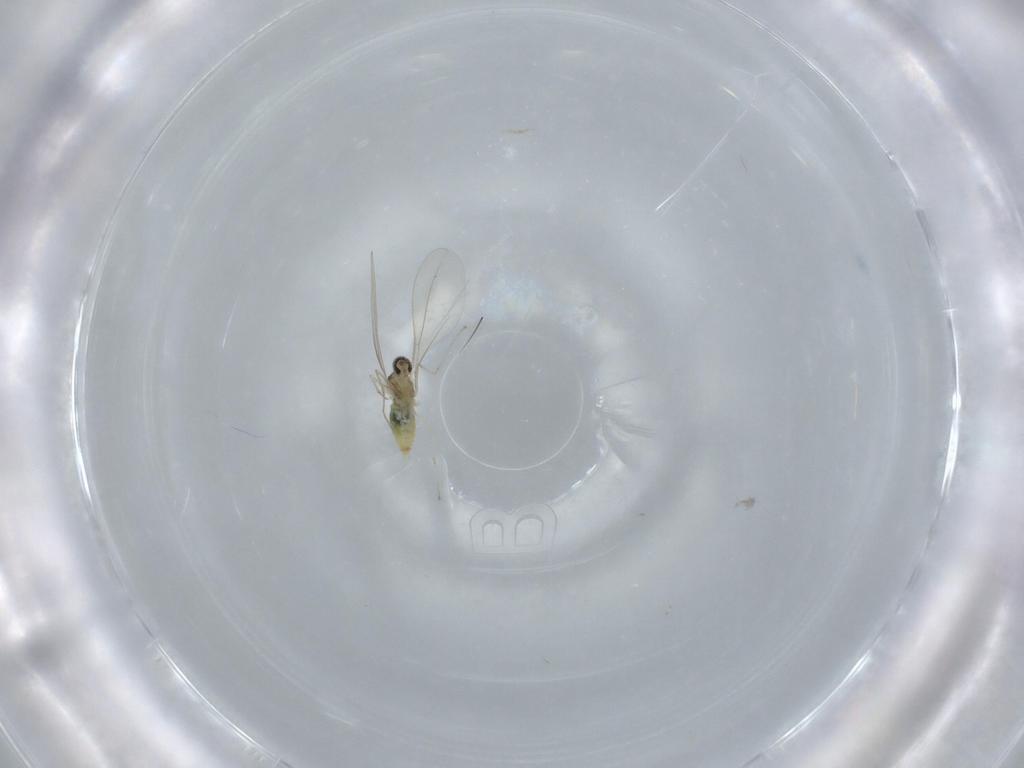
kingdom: Animalia
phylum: Arthropoda
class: Insecta
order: Diptera
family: Cecidomyiidae
